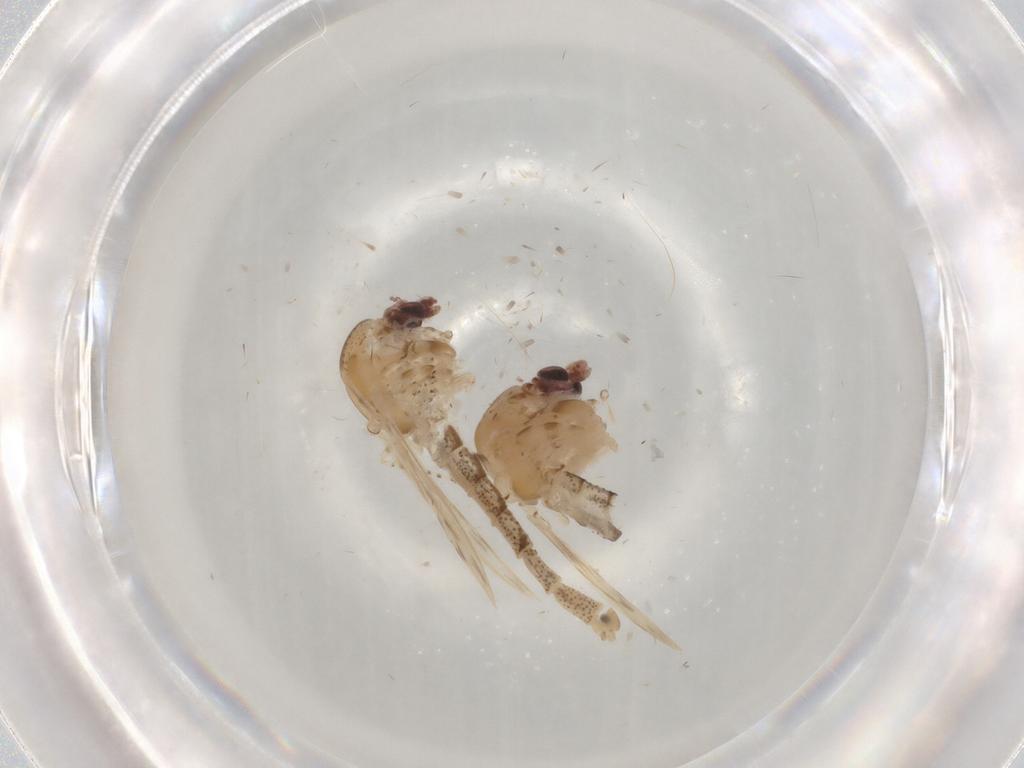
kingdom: Animalia
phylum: Arthropoda
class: Insecta
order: Diptera
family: Chaoboridae
